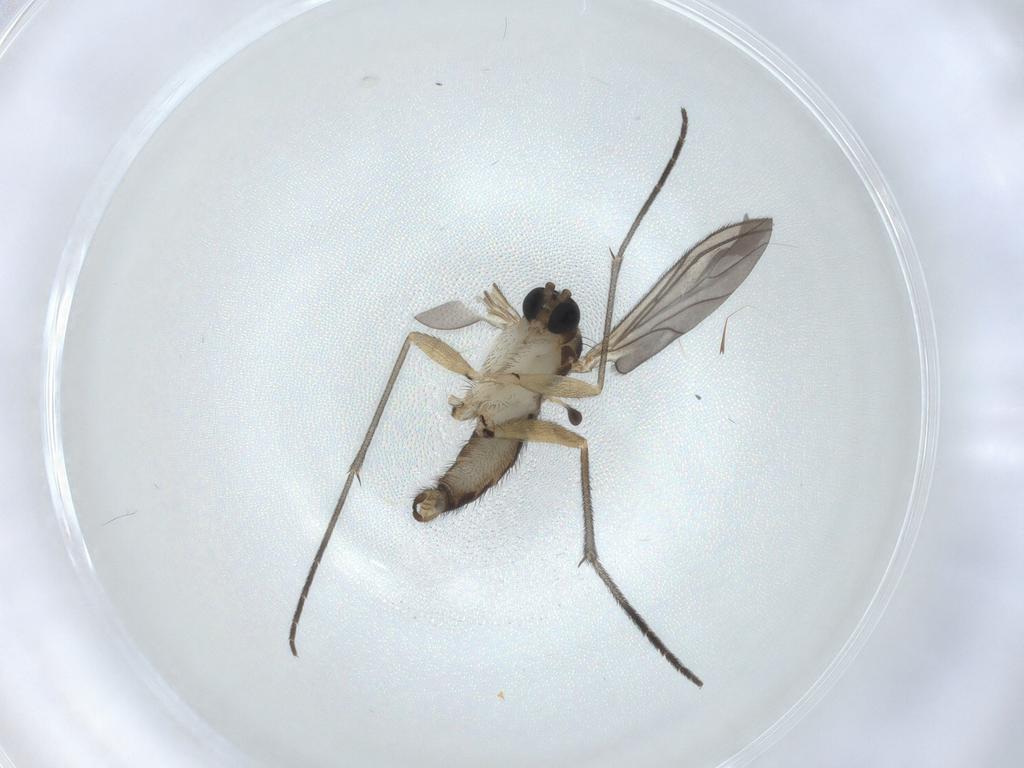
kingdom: Animalia
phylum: Arthropoda
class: Insecta
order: Diptera
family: Sciaridae
